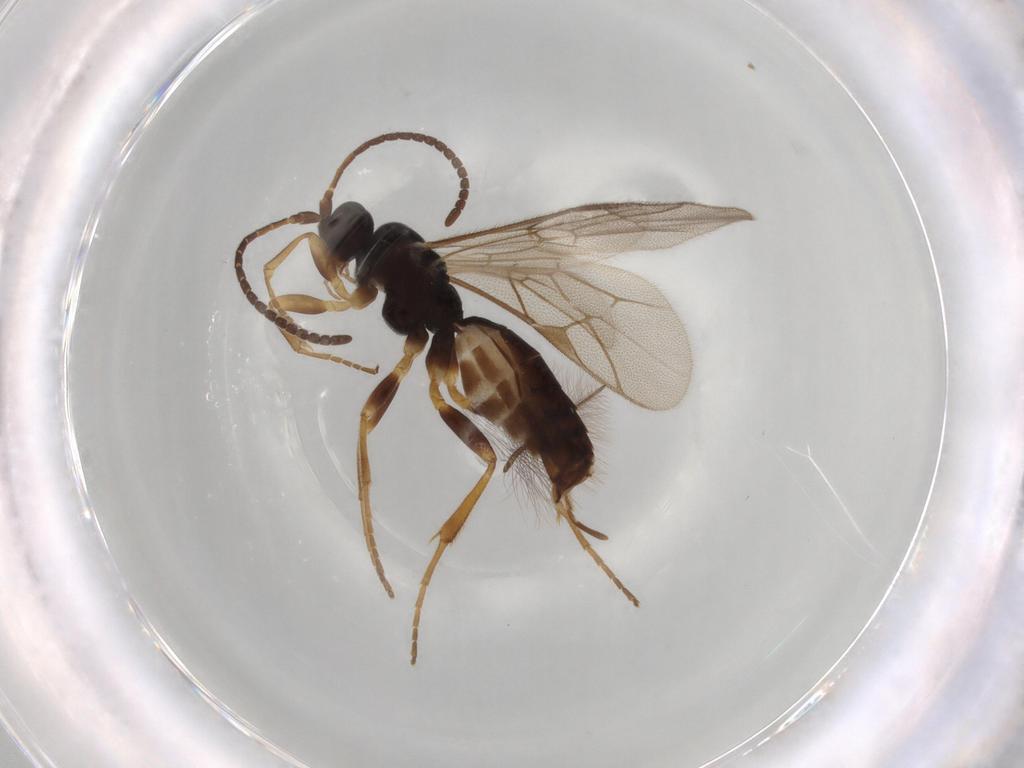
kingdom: Animalia
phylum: Arthropoda
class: Insecta
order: Hymenoptera
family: Ichneumonidae
